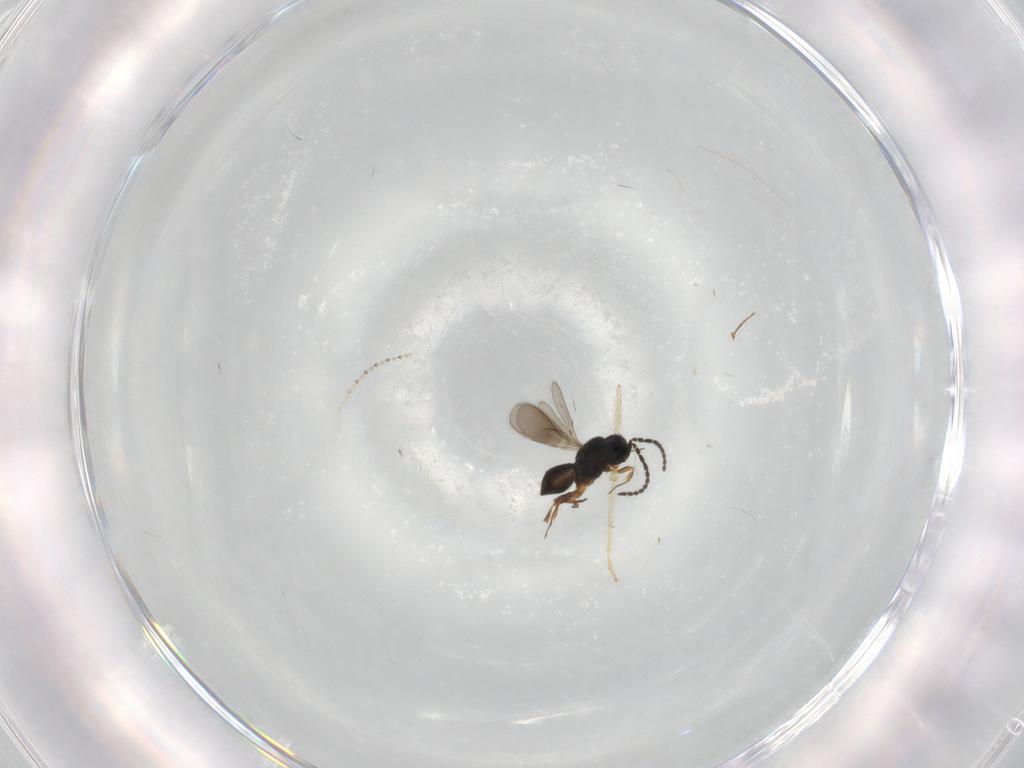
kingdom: Animalia
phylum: Arthropoda
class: Insecta
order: Hymenoptera
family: Scelionidae
